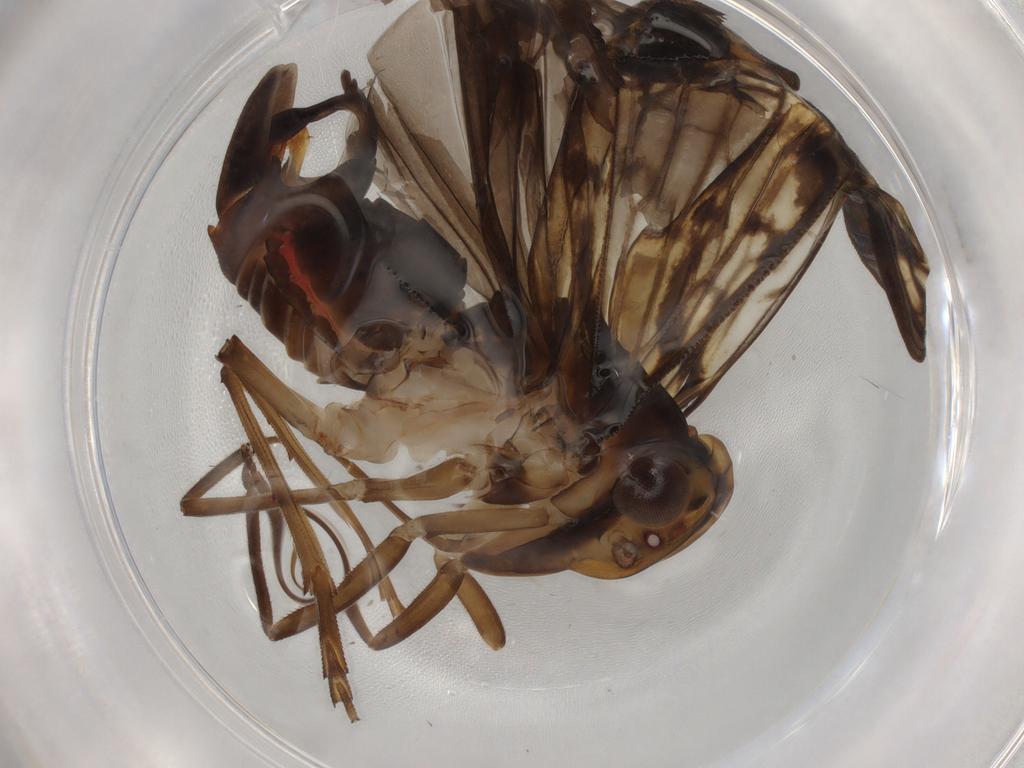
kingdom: Animalia
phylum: Arthropoda
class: Insecta
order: Hemiptera
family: Cixiidae
